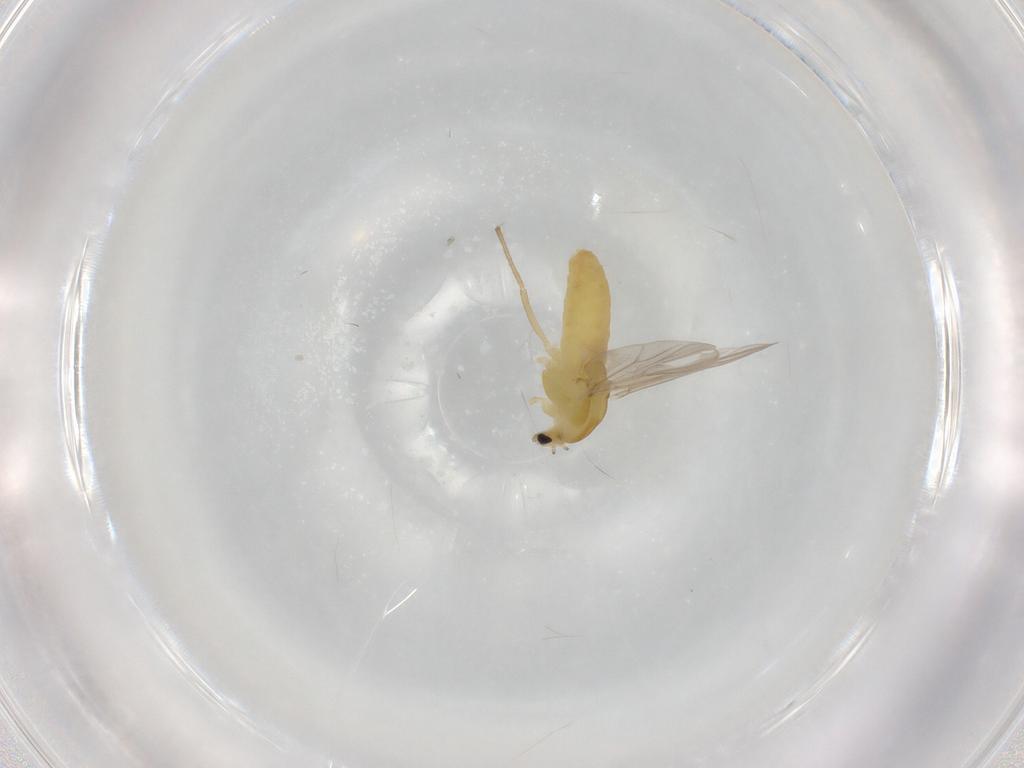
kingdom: Animalia
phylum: Arthropoda
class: Insecta
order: Diptera
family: Chironomidae
